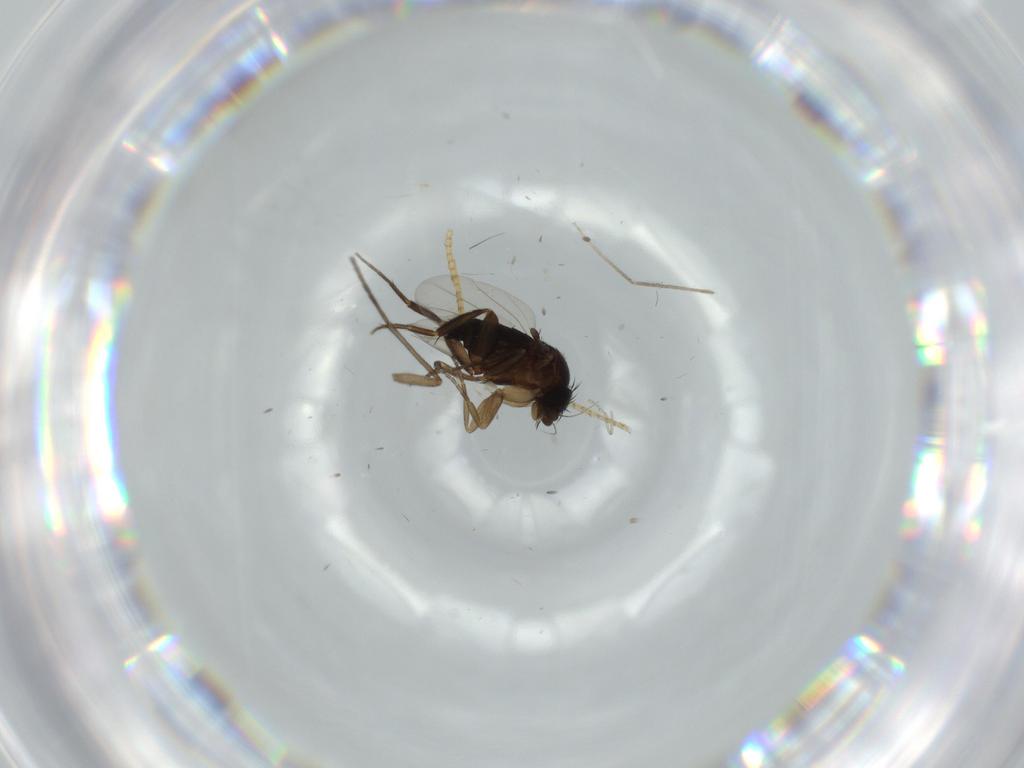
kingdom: Animalia
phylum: Arthropoda
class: Insecta
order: Diptera
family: Phoridae
